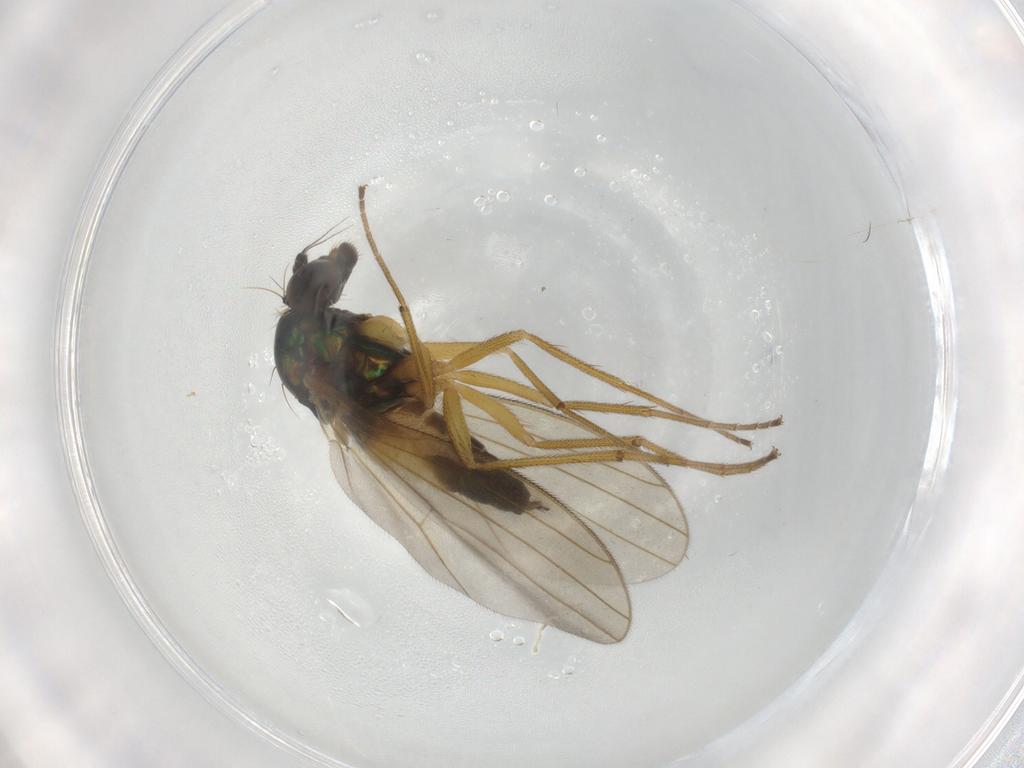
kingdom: Animalia
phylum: Arthropoda
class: Insecta
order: Diptera
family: Dolichopodidae
